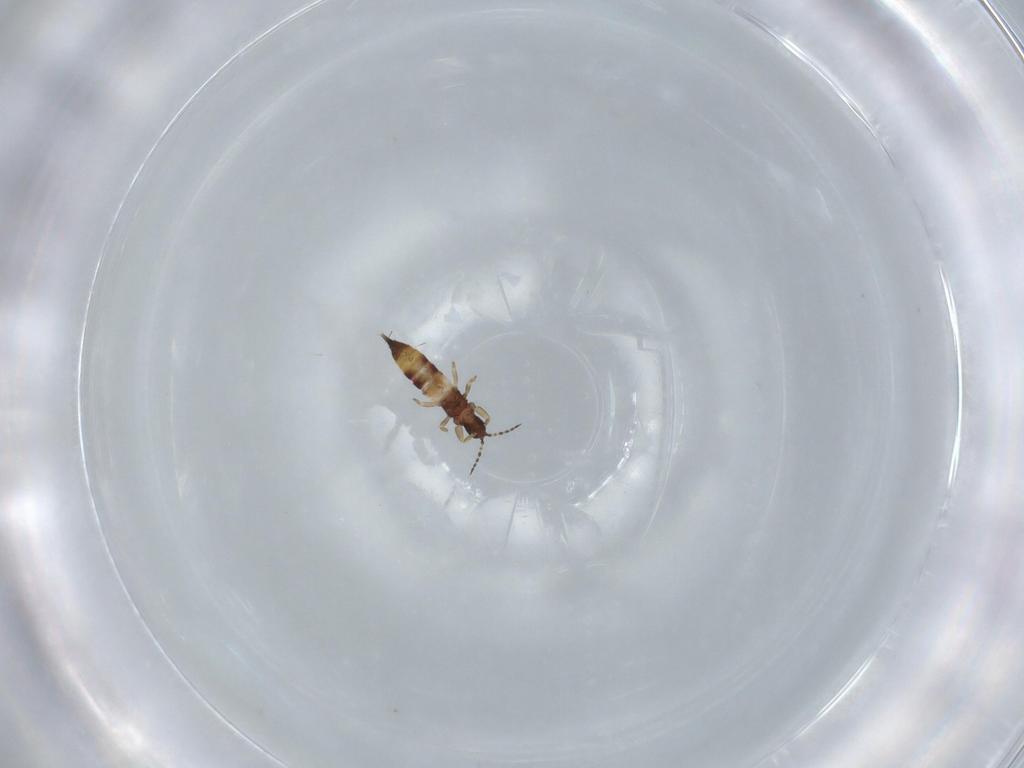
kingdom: Animalia
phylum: Arthropoda
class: Insecta
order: Thysanoptera
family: Phlaeothripidae
